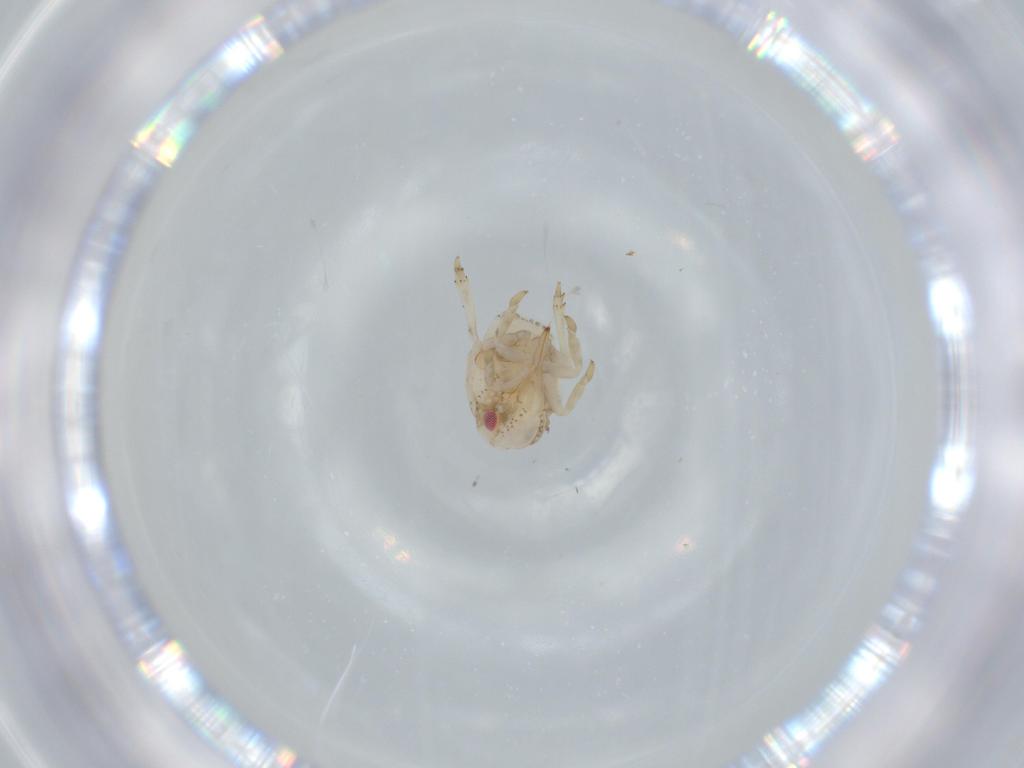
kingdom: Animalia
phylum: Arthropoda
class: Insecta
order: Hemiptera
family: Acanaloniidae
